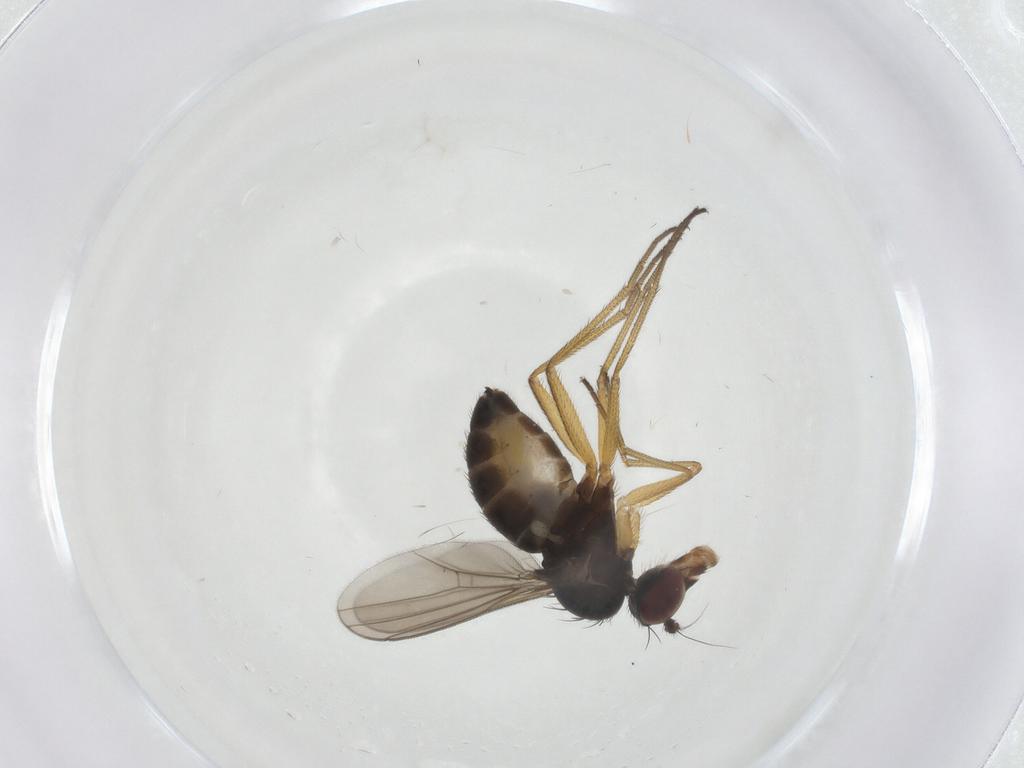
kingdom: Animalia
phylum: Arthropoda
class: Insecta
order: Diptera
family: Dolichopodidae
